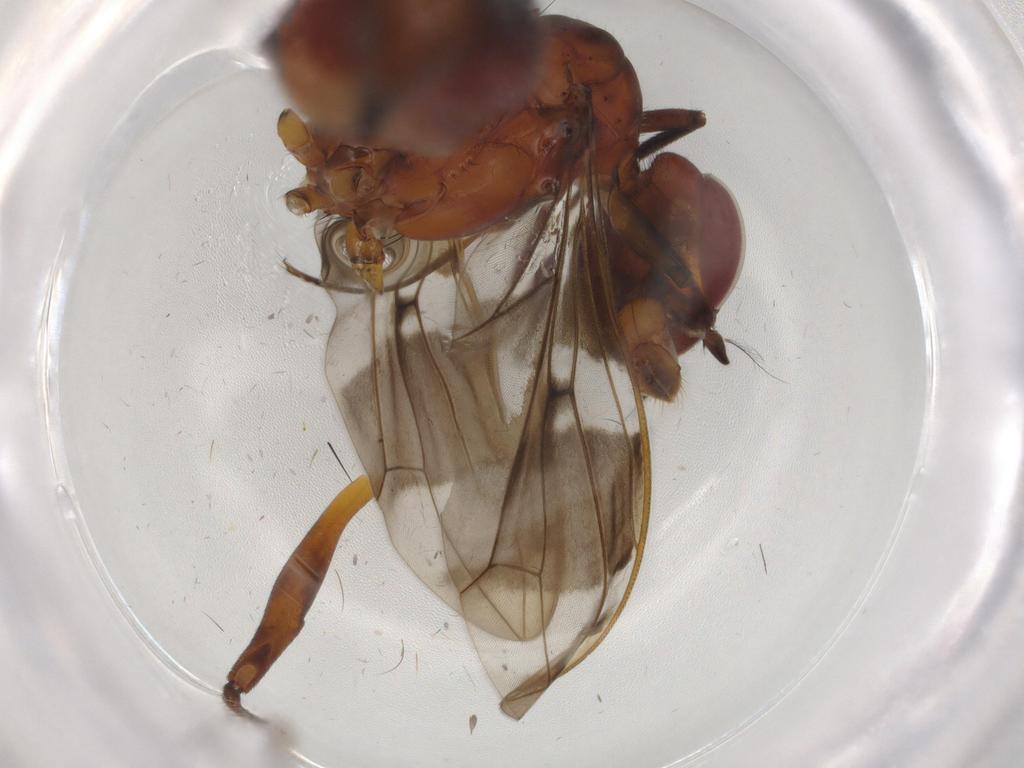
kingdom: Animalia
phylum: Arthropoda
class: Insecta
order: Diptera
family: Cecidomyiidae
